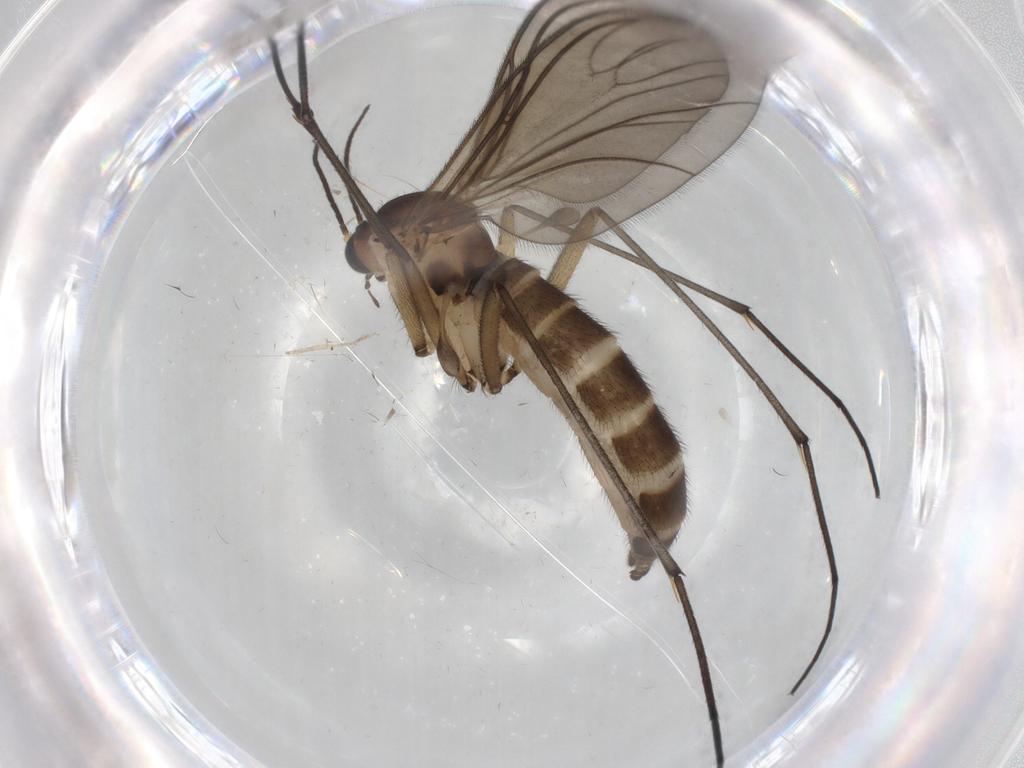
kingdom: Animalia
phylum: Arthropoda
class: Insecta
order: Diptera
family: Sciaridae
